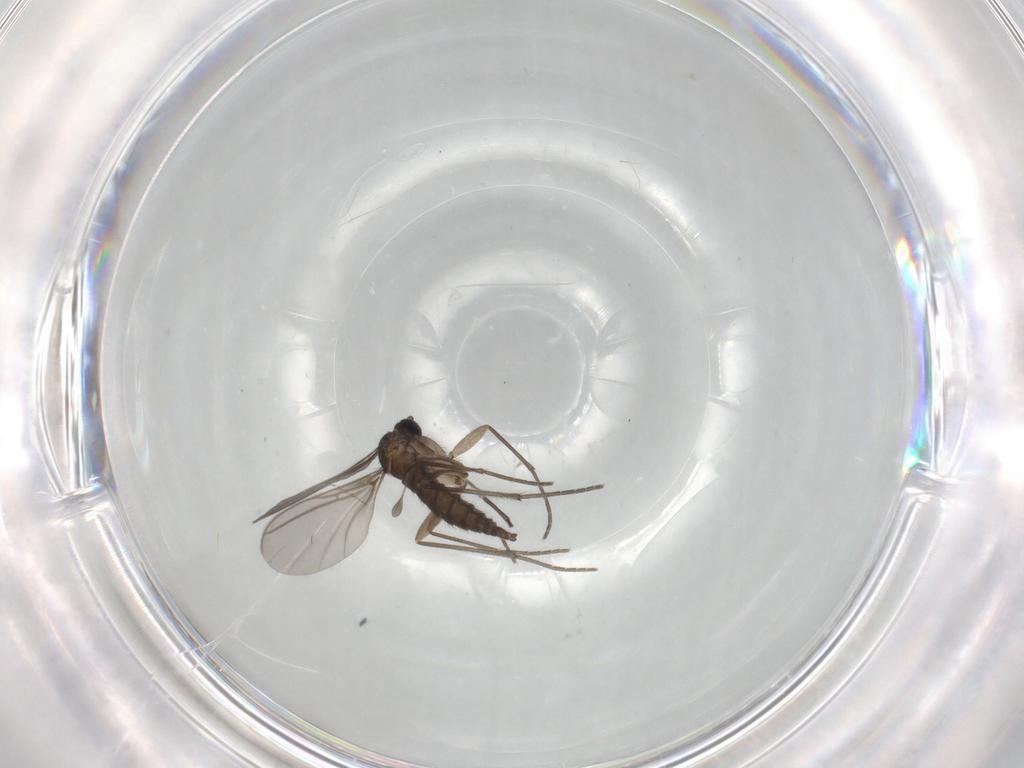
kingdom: Animalia
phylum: Arthropoda
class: Insecta
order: Diptera
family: Sciaridae
